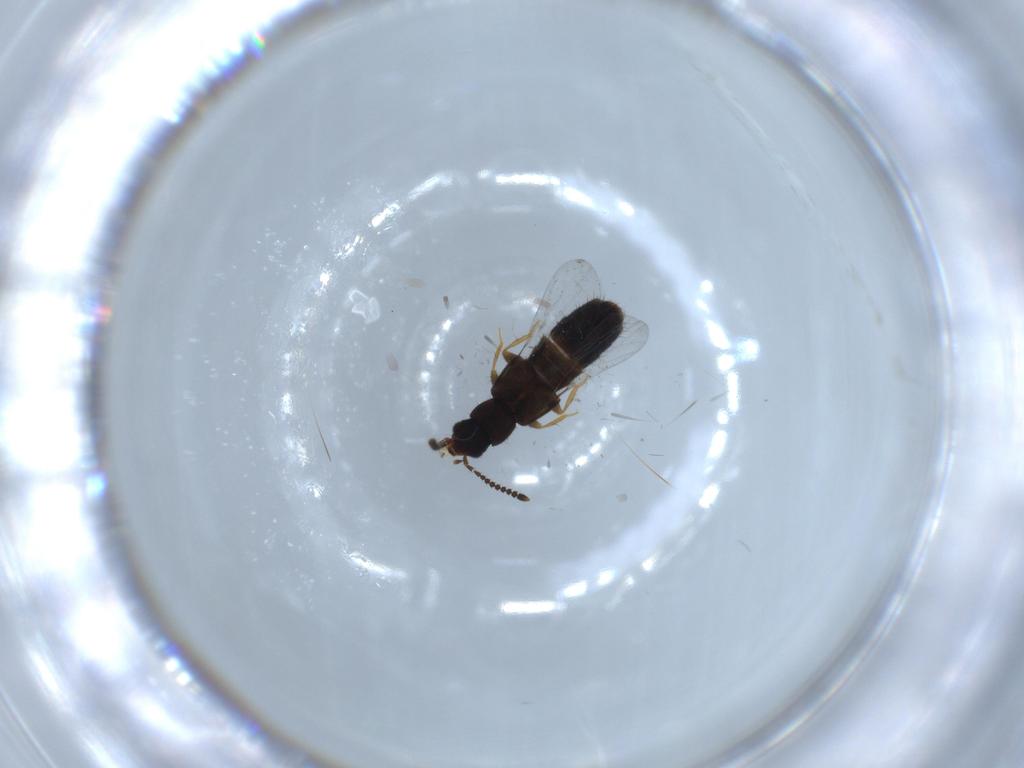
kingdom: Animalia
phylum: Arthropoda
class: Insecta
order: Coleoptera
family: Staphylinidae
